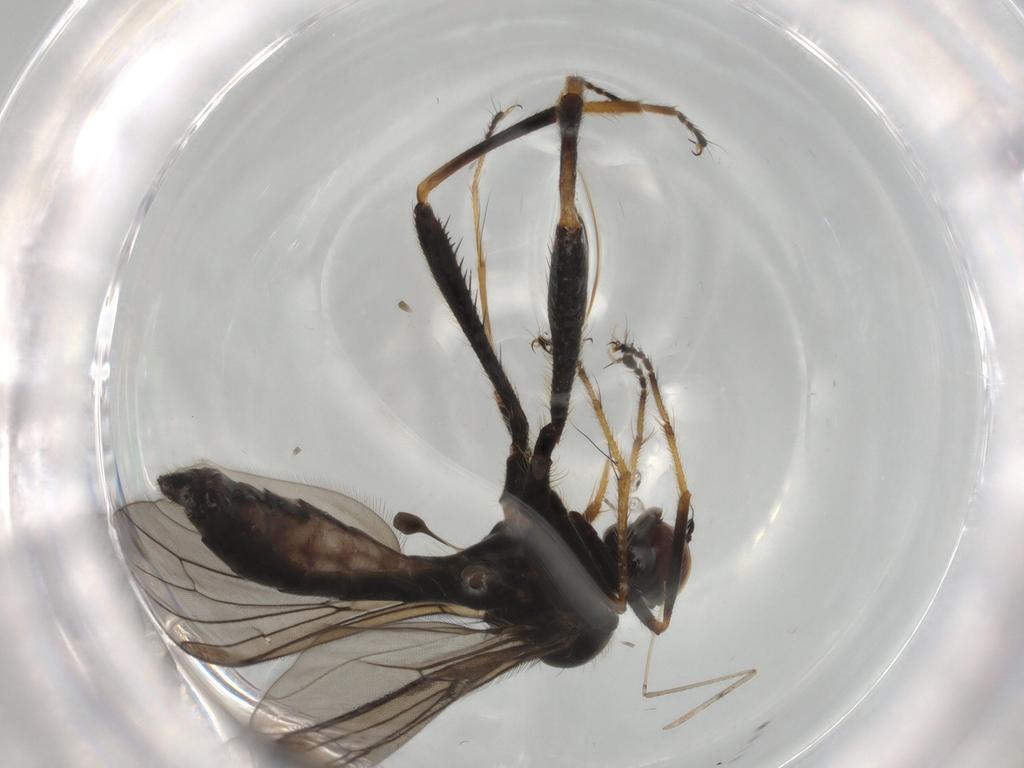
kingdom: Animalia
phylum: Arthropoda
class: Insecta
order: Diptera
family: Hybotidae
